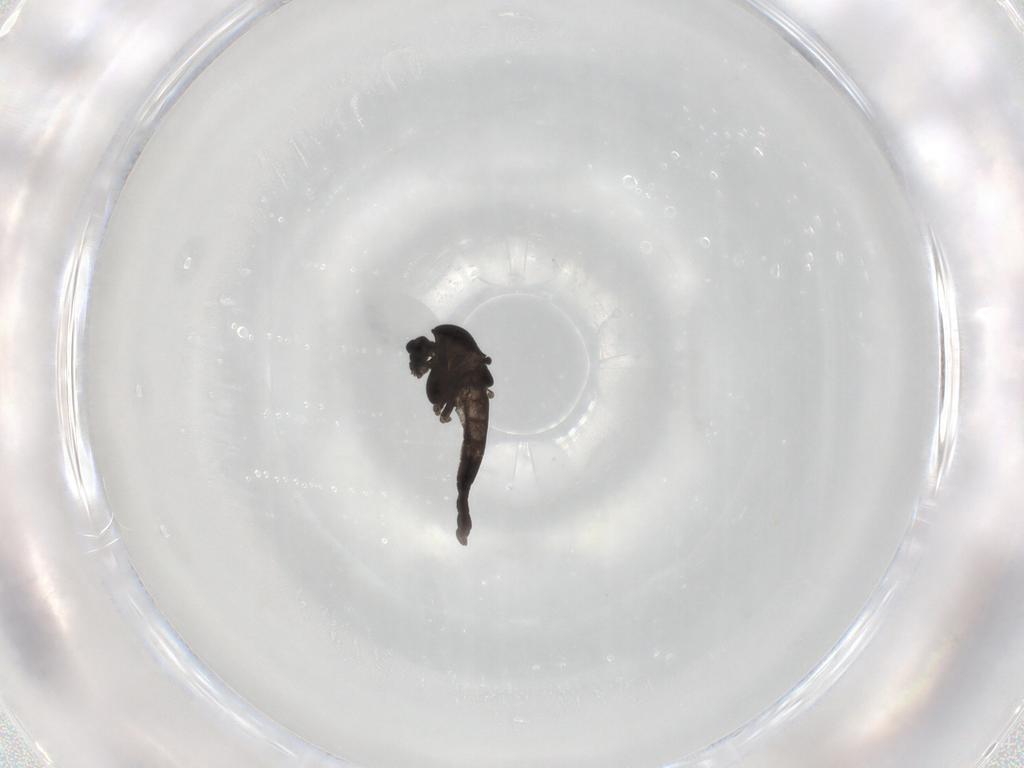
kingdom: Animalia
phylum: Arthropoda
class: Insecta
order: Diptera
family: Chironomidae
